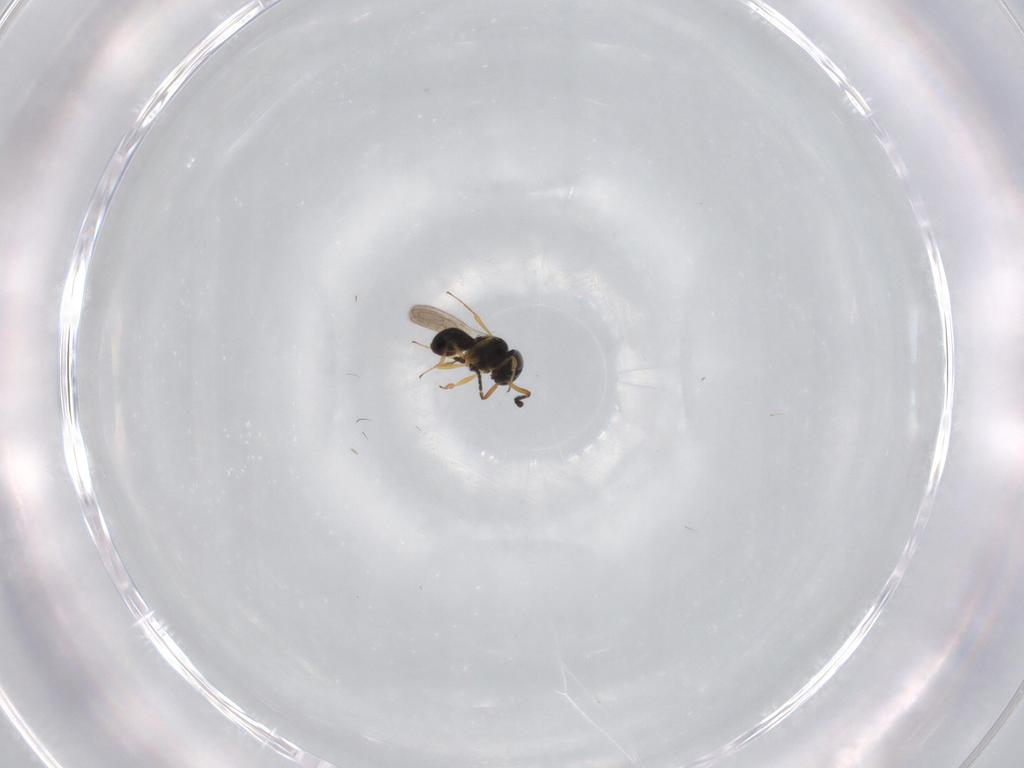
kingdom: Animalia
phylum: Arthropoda
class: Insecta
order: Hymenoptera
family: Scelionidae
